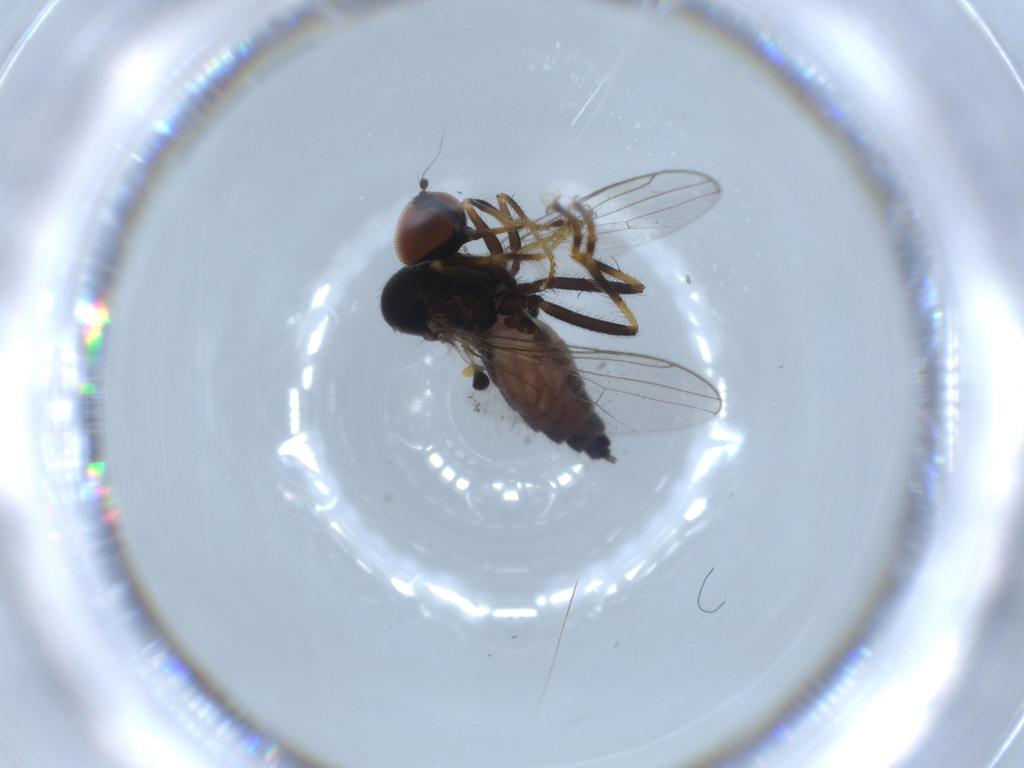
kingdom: Animalia
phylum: Arthropoda
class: Insecta
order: Diptera
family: Hybotidae
